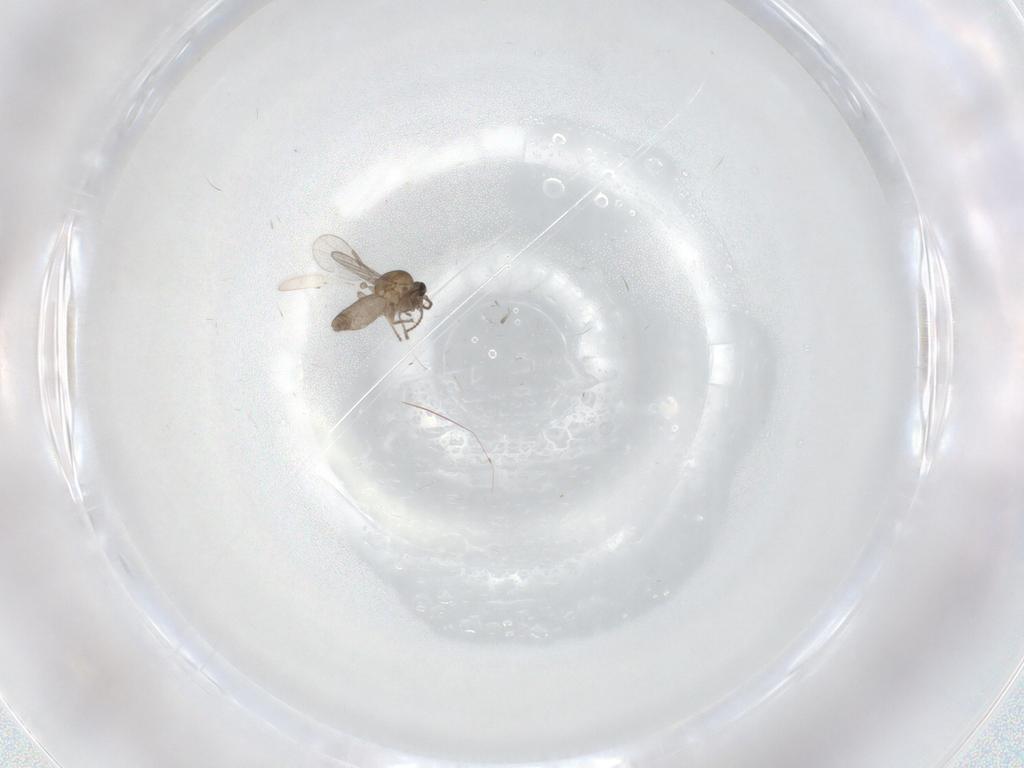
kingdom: Animalia
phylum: Arthropoda
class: Insecta
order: Diptera
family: Ceratopogonidae
